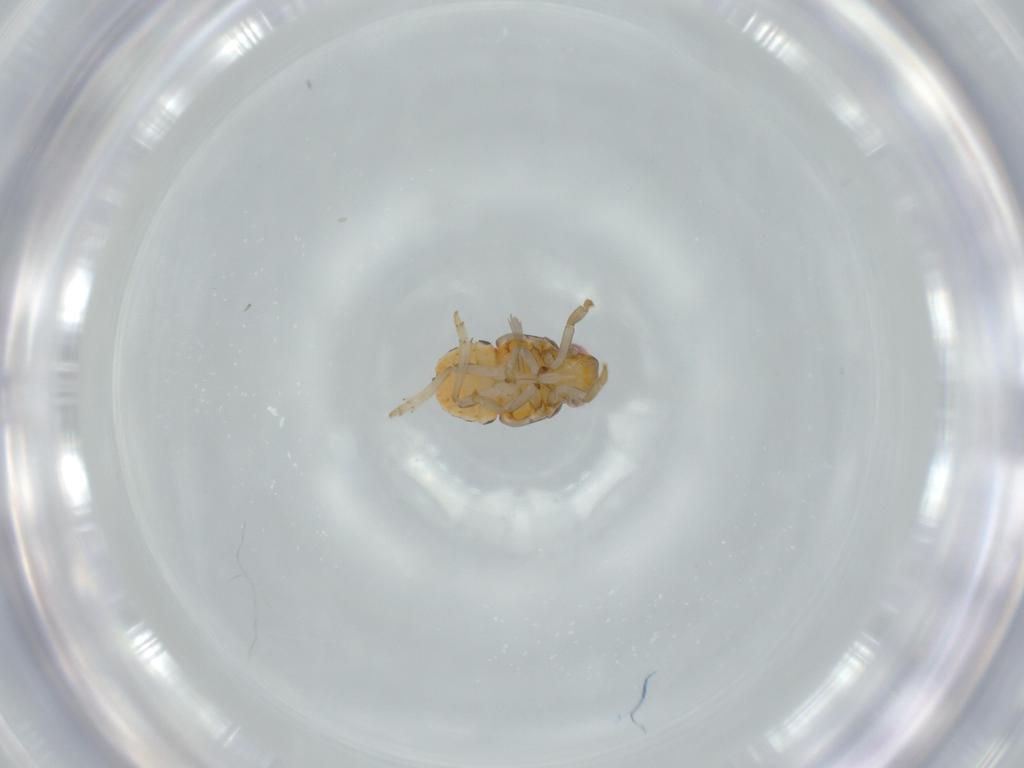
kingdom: Animalia
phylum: Arthropoda
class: Insecta
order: Hemiptera
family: Issidae
